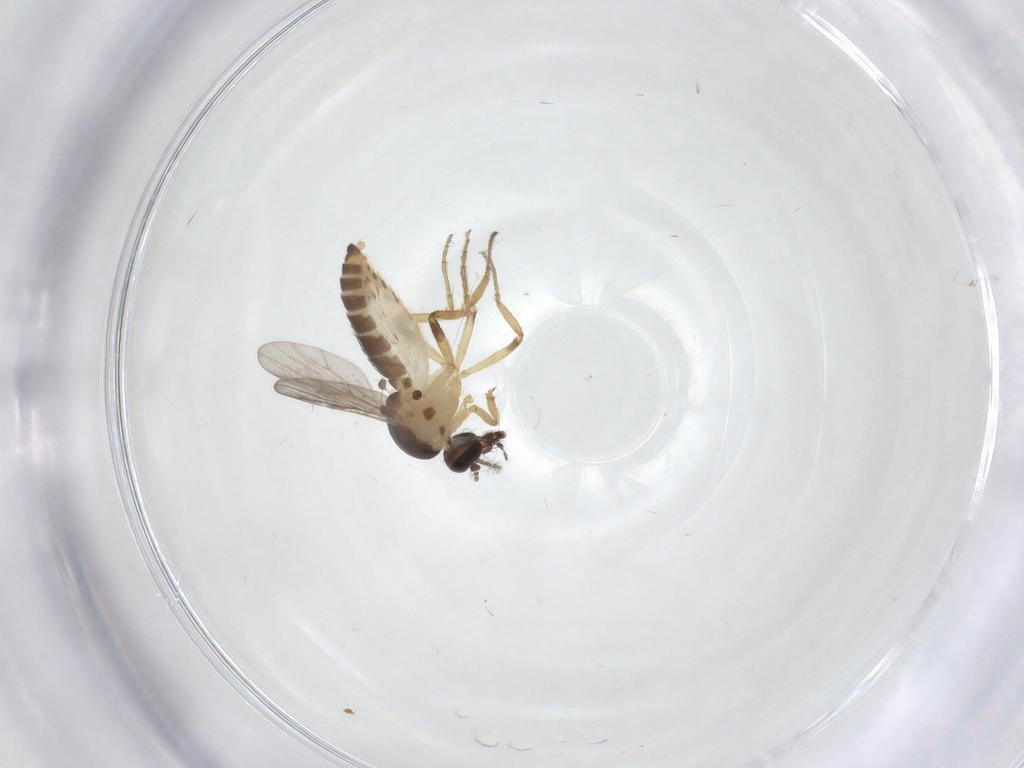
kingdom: Animalia
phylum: Arthropoda
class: Insecta
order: Diptera
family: Ceratopogonidae
